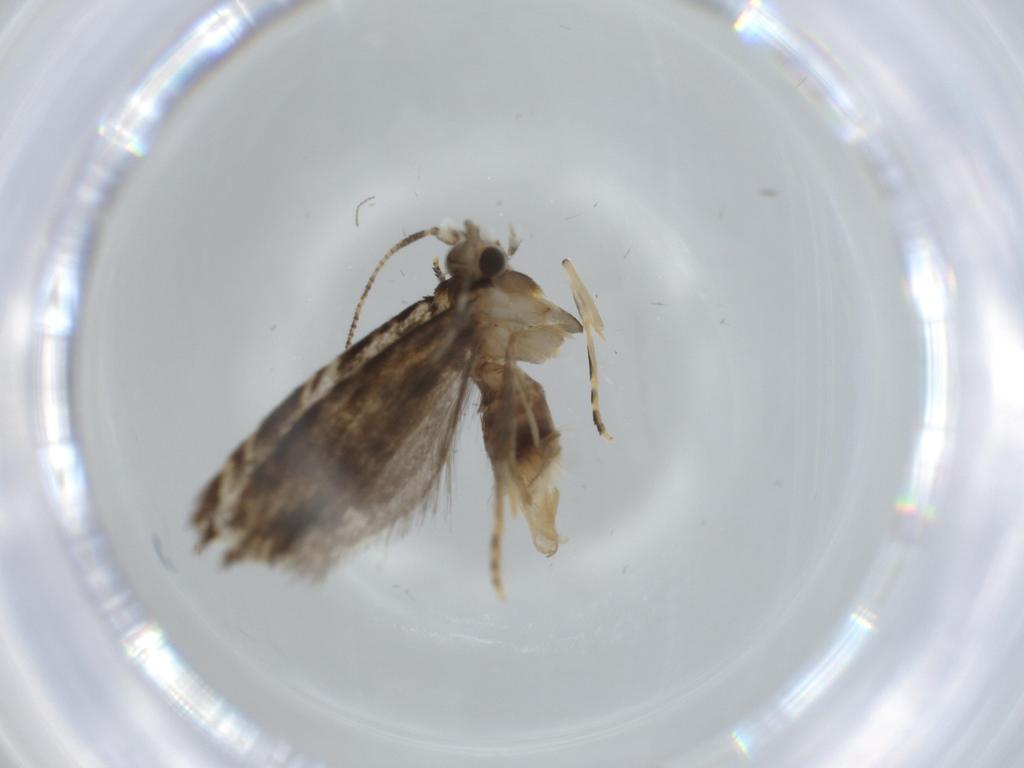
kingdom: Animalia
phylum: Arthropoda
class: Insecta
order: Lepidoptera
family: Tineidae
